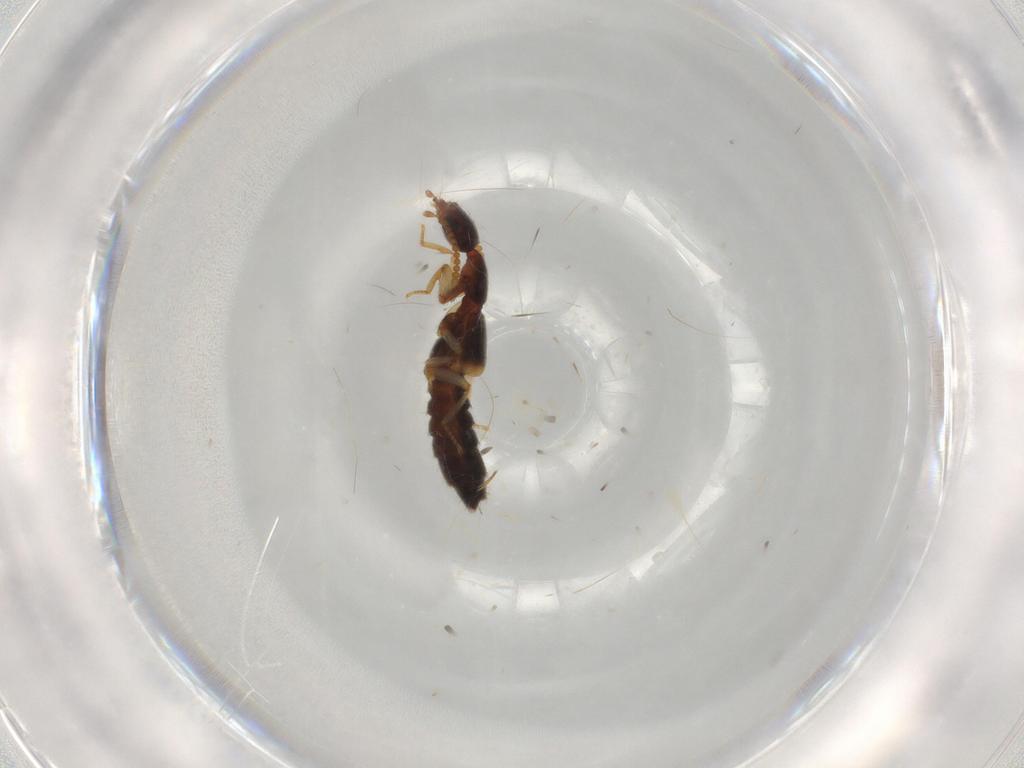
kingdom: Animalia
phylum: Arthropoda
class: Insecta
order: Coleoptera
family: Staphylinidae
